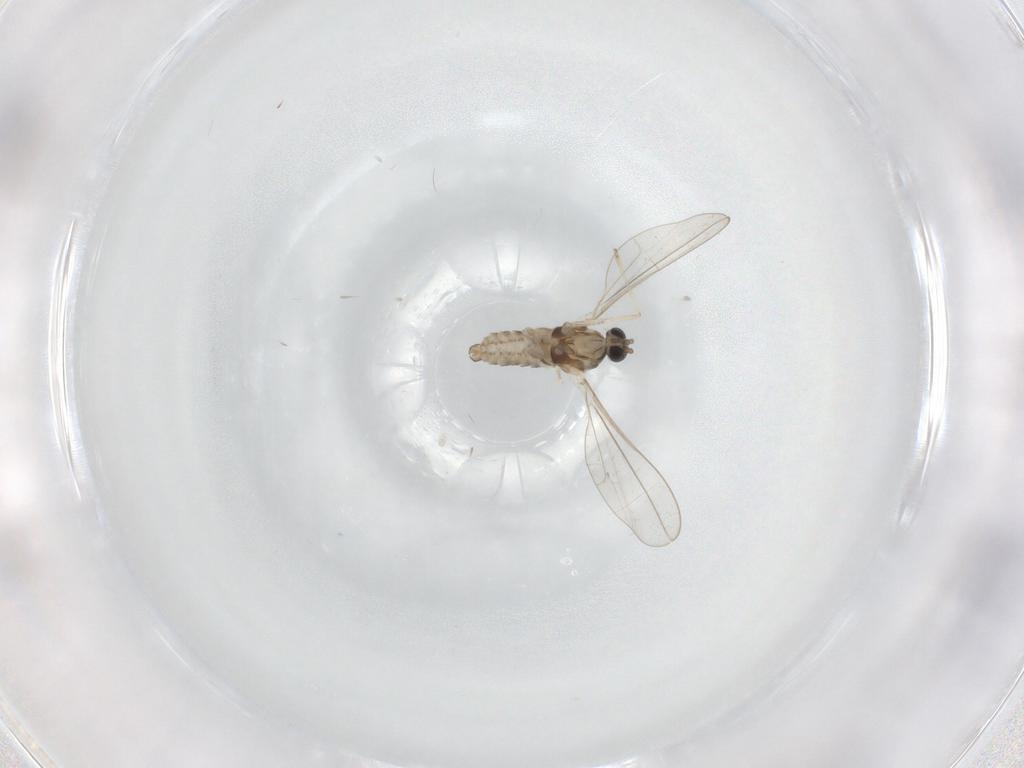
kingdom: Animalia
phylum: Arthropoda
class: Insecta
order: Diptera
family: Cecidomyiidae
